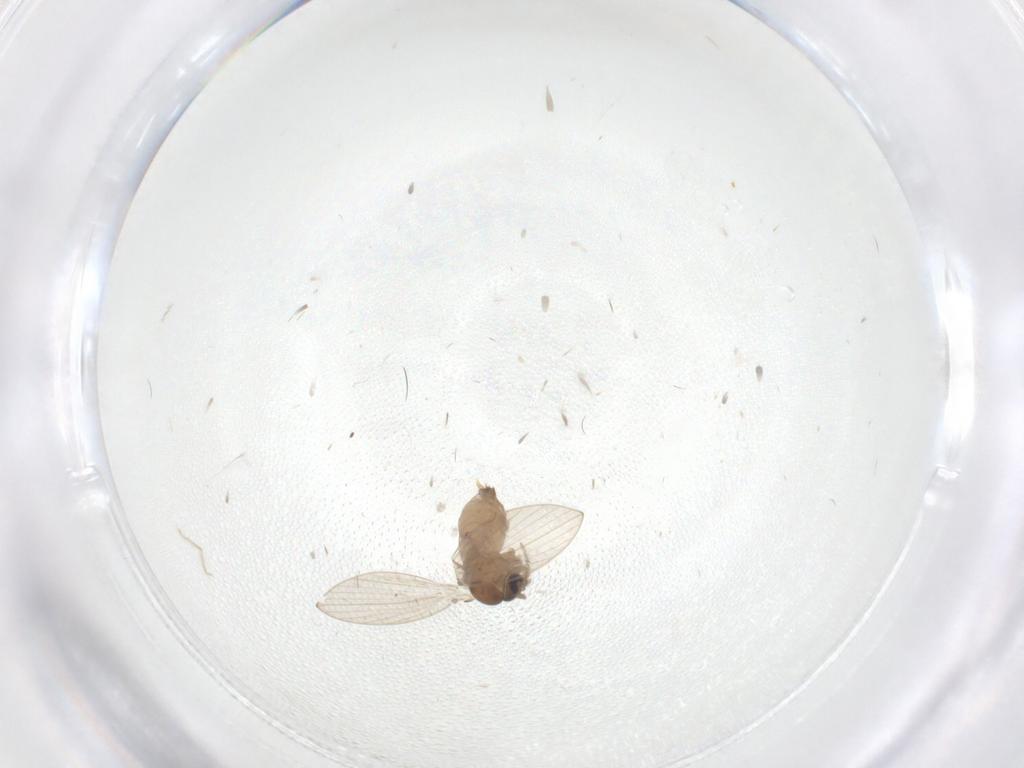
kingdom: Animalia
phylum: Arthropoda
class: Insecta
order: Diptera
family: Cecidomyiidae
